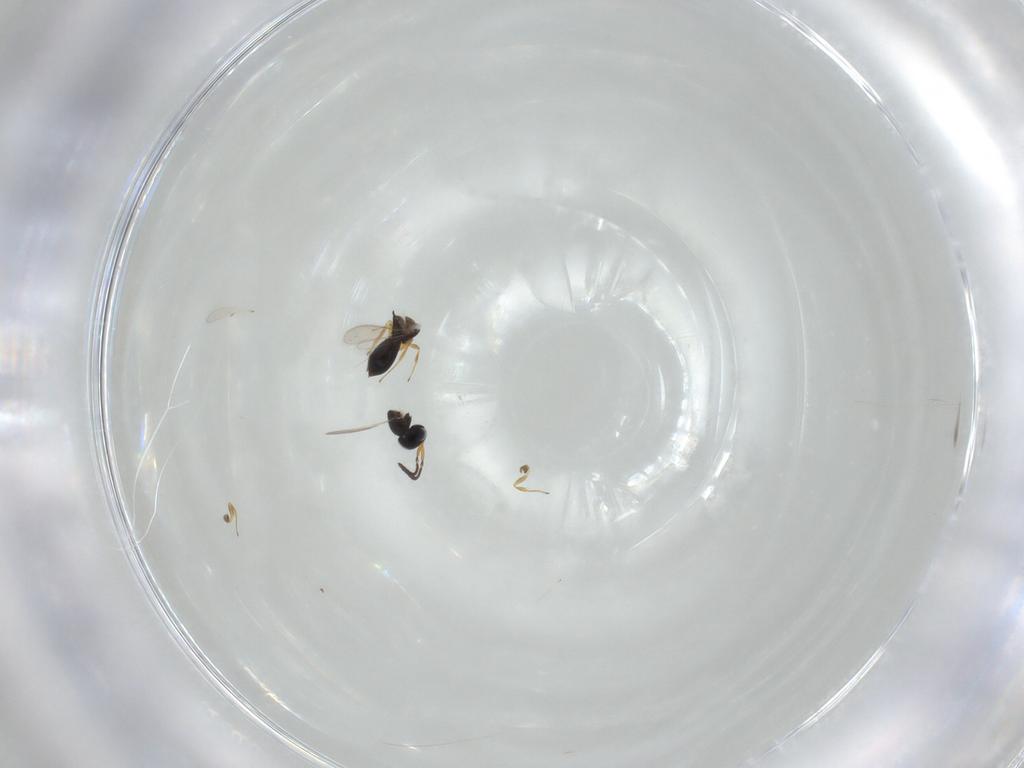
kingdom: Animalia
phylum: Arthropoda
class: Insecta
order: Hymenoptera
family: Scelionidae
